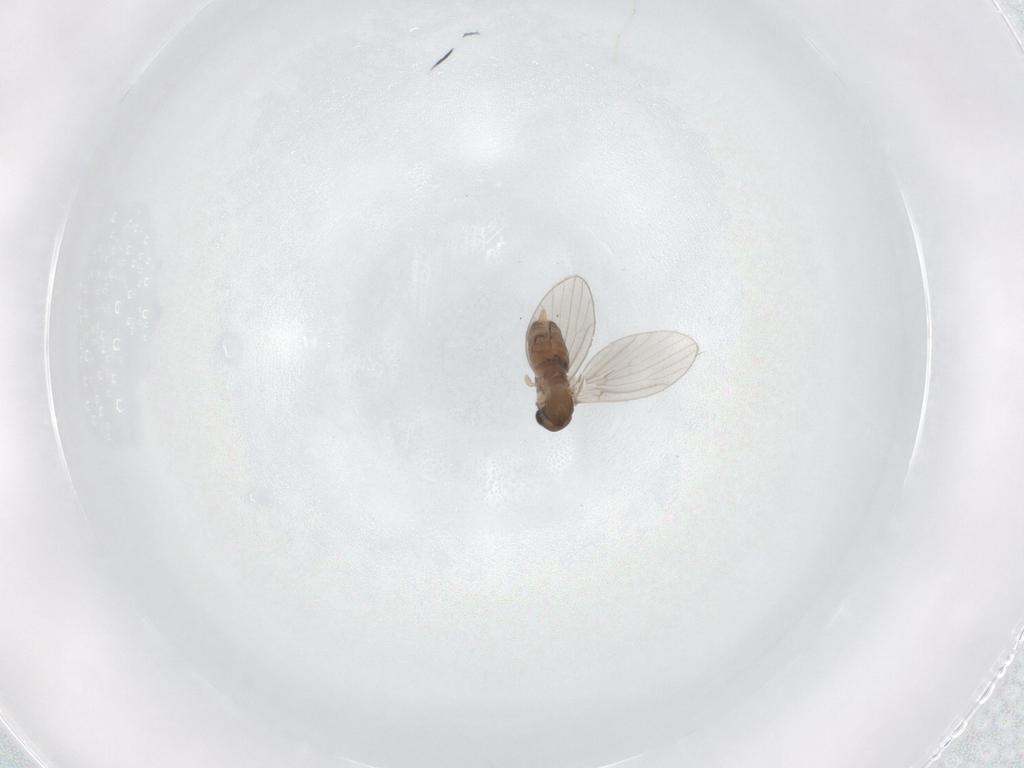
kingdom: Animalia
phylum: Arthropoda
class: Insecta
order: Diptera
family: Cecidomyiidae
